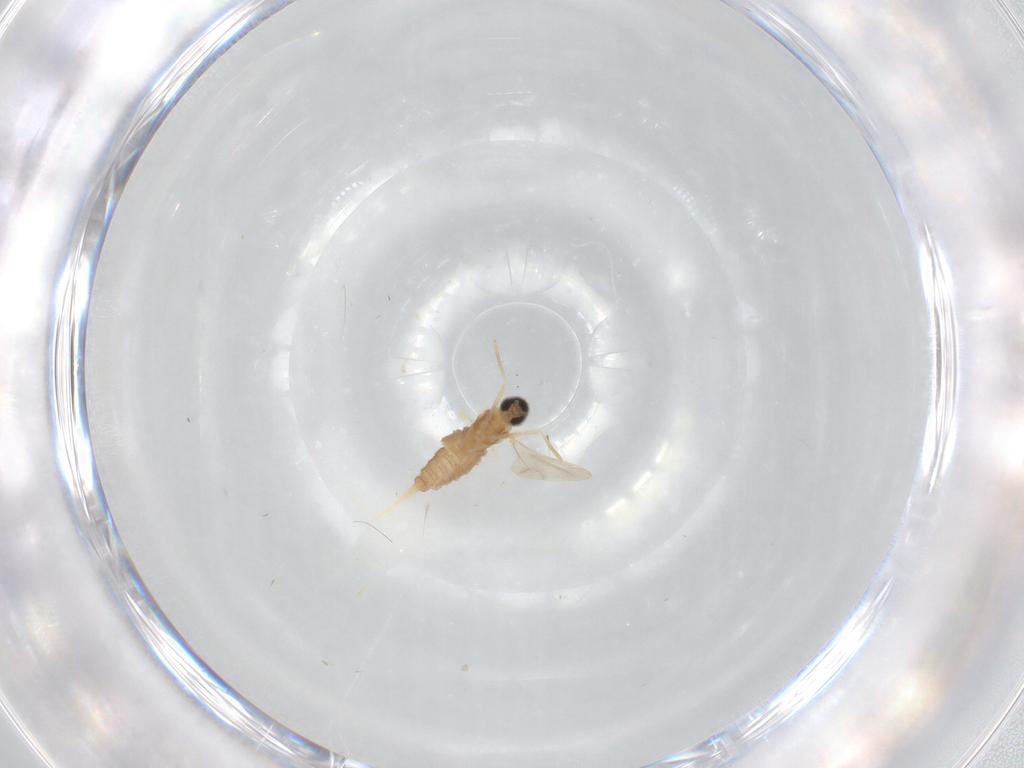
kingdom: Animalia
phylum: Arthropoda
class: Insecta
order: Diptera
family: Cecidomyiidae
